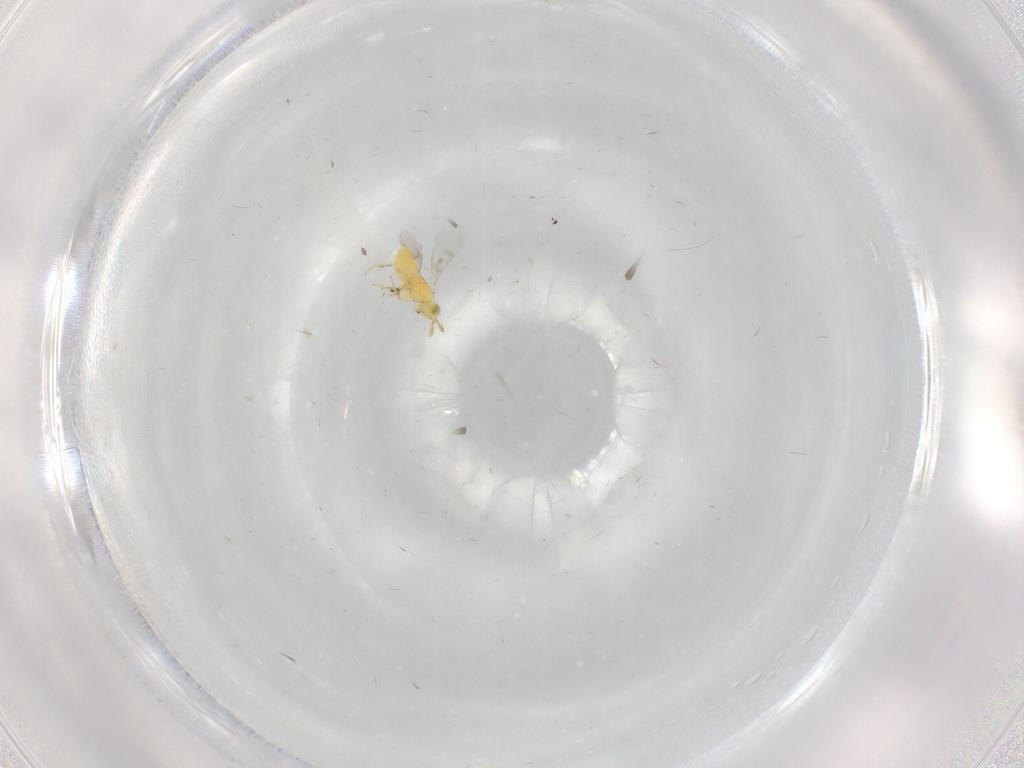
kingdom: Animalia
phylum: Arthropoda
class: Insecta
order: Hymenoptera
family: Aphelinidae
